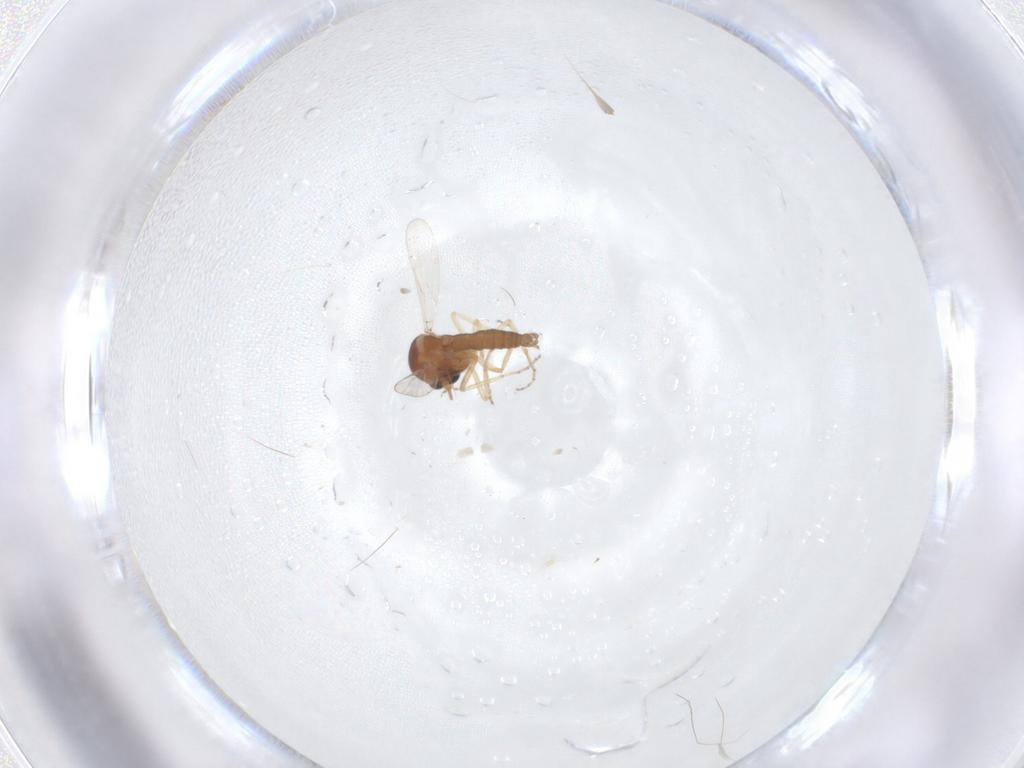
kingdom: Animalia
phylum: Arthropoda
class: Insecta
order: Diptera
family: Ceratopogonidae
